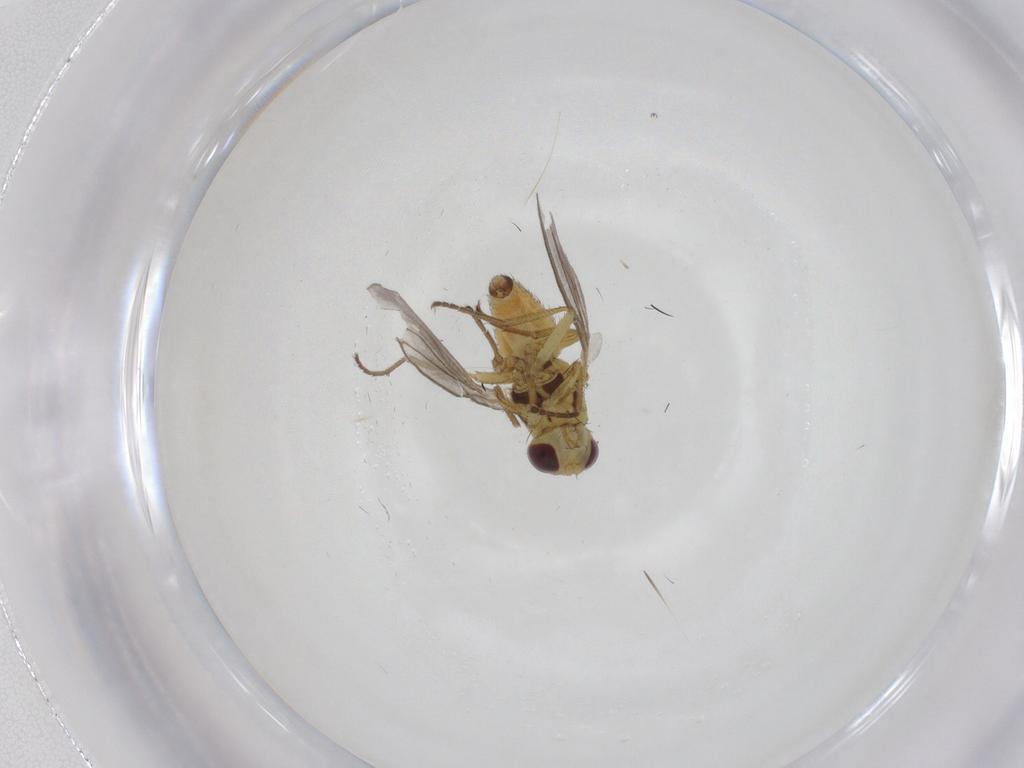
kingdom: Animalia
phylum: Arthropoda
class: Insecta
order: Diptera
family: Agromyzidae
